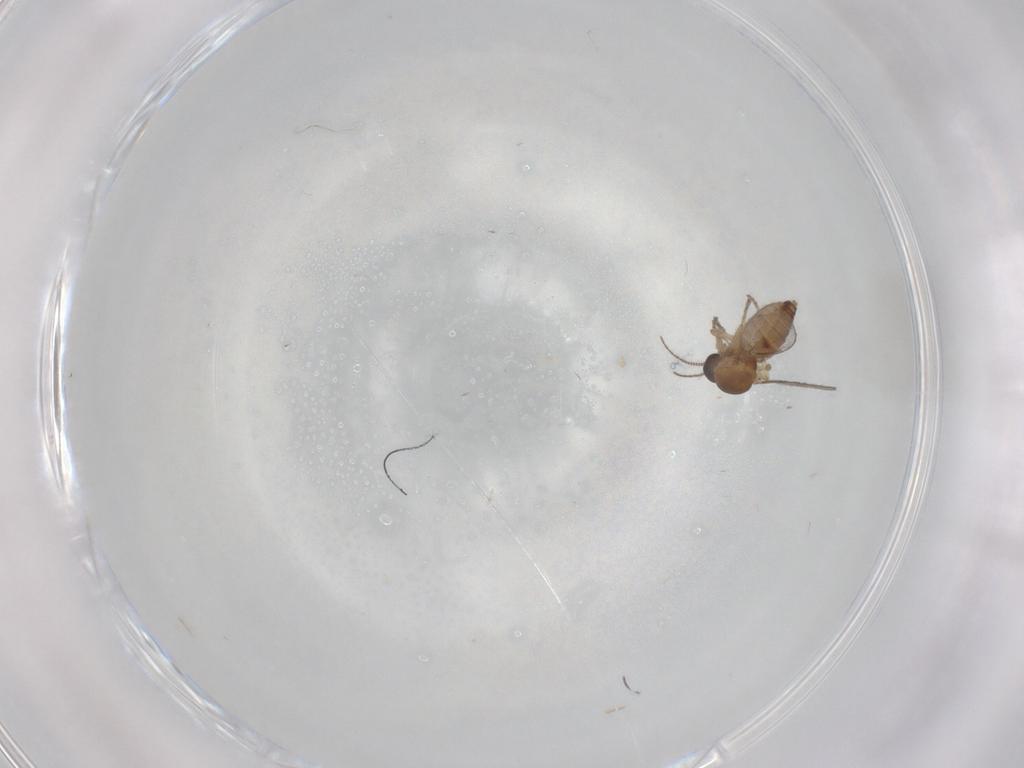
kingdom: Animalia
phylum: Arthropoda
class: Insecta
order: Diptera
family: Ceratopogonidae
